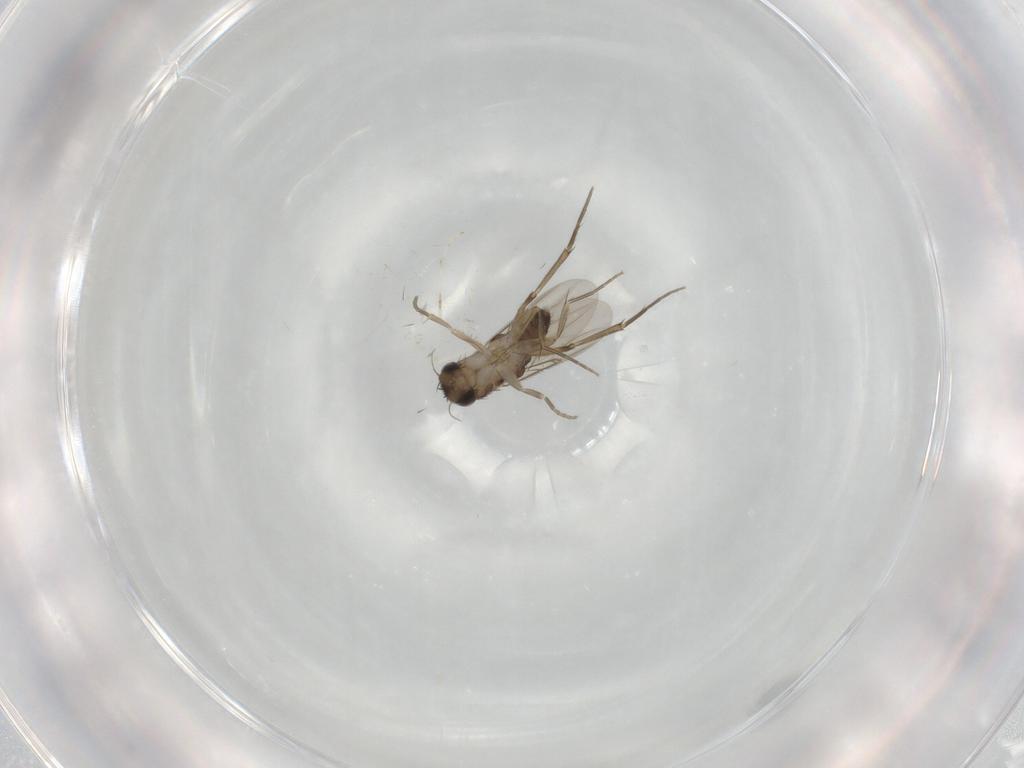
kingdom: Animalia
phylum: Arthropoda
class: Insecta
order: Diptera
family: Phoridae
